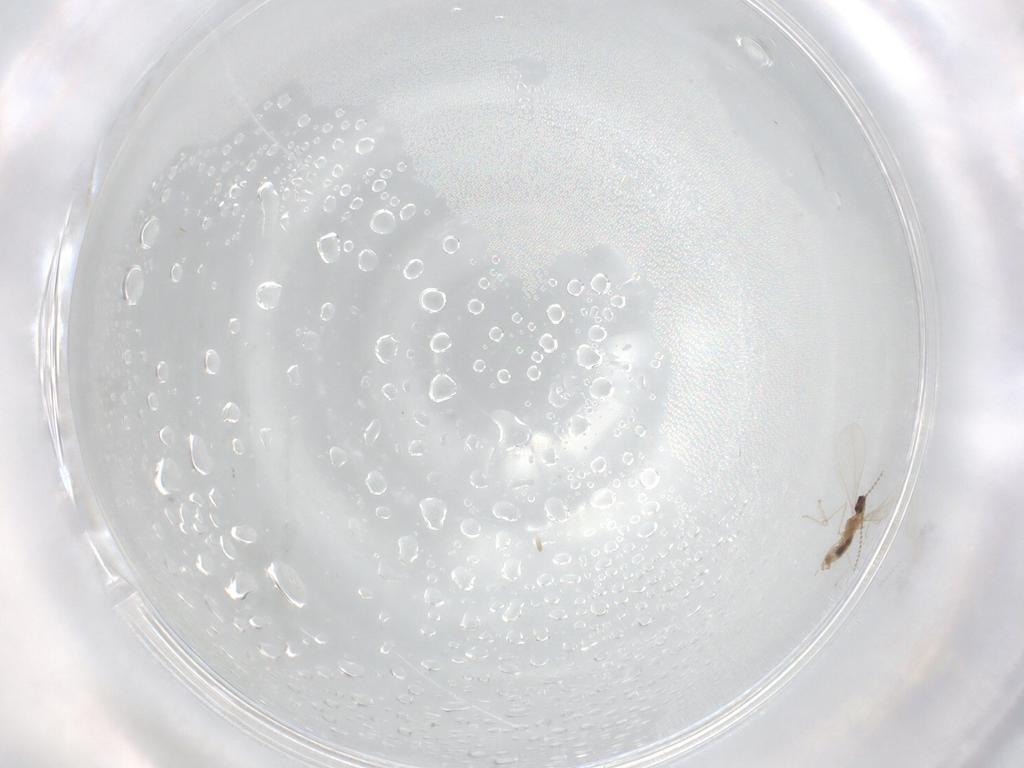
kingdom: Animalia
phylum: Arthropoda
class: Insecta
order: Diptera
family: Cecidomyiidae
